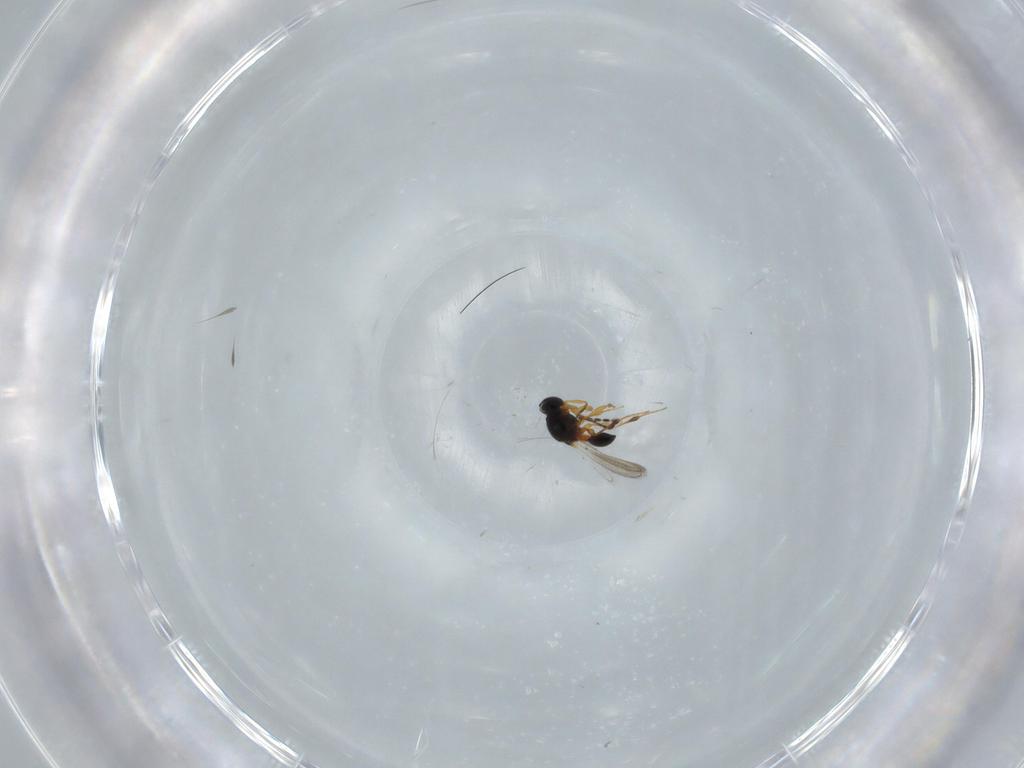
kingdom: Animalia
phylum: Arthropoda
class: Insecta
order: Hymenoptera
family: Platygastridae
